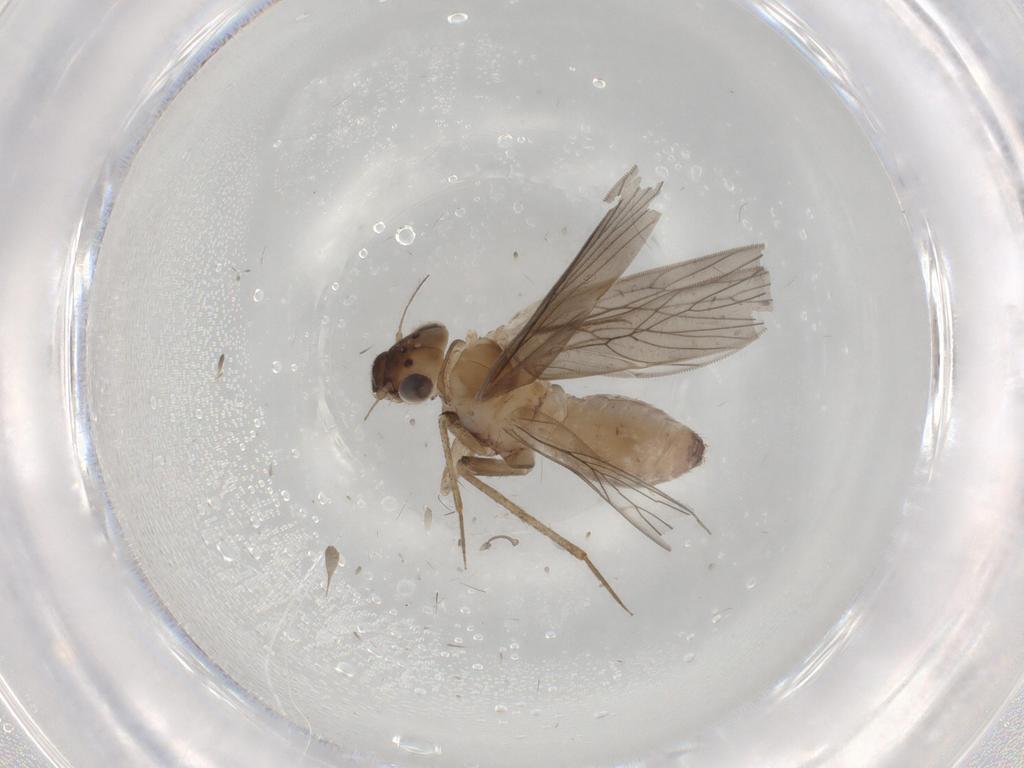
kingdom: Animalia
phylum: Arthropoda
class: Insecta
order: Psocodea
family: Lepidopsocidae
